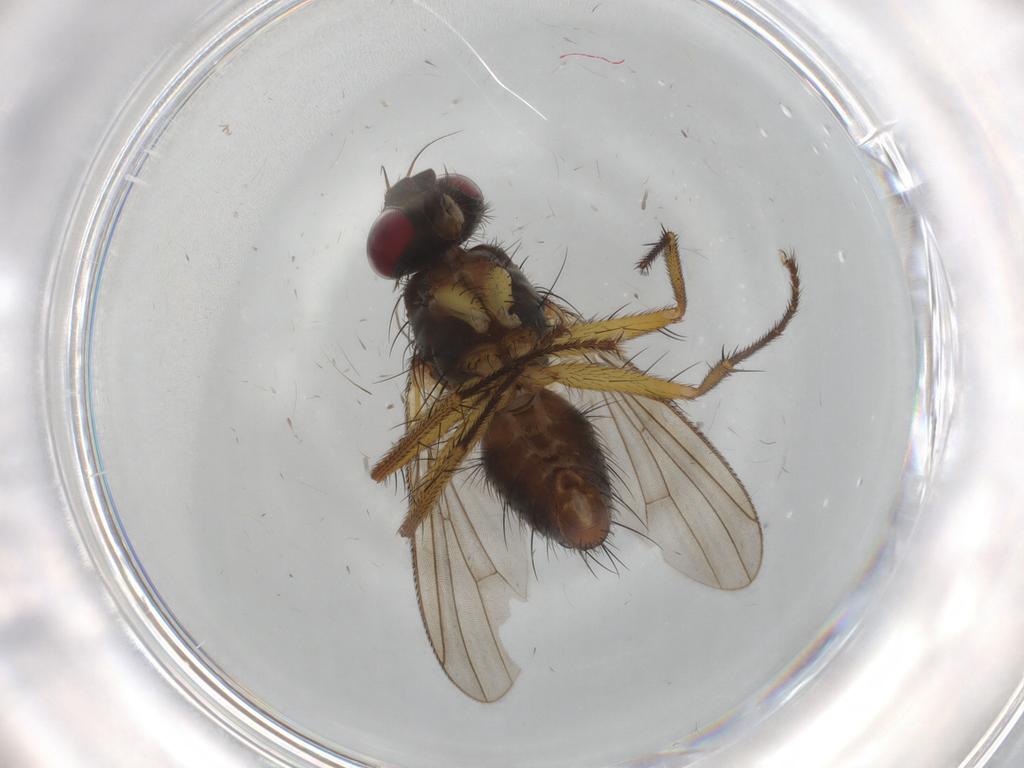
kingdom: Animalia
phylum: Arthropoda
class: Insecta
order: Diptera
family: Muscidae
